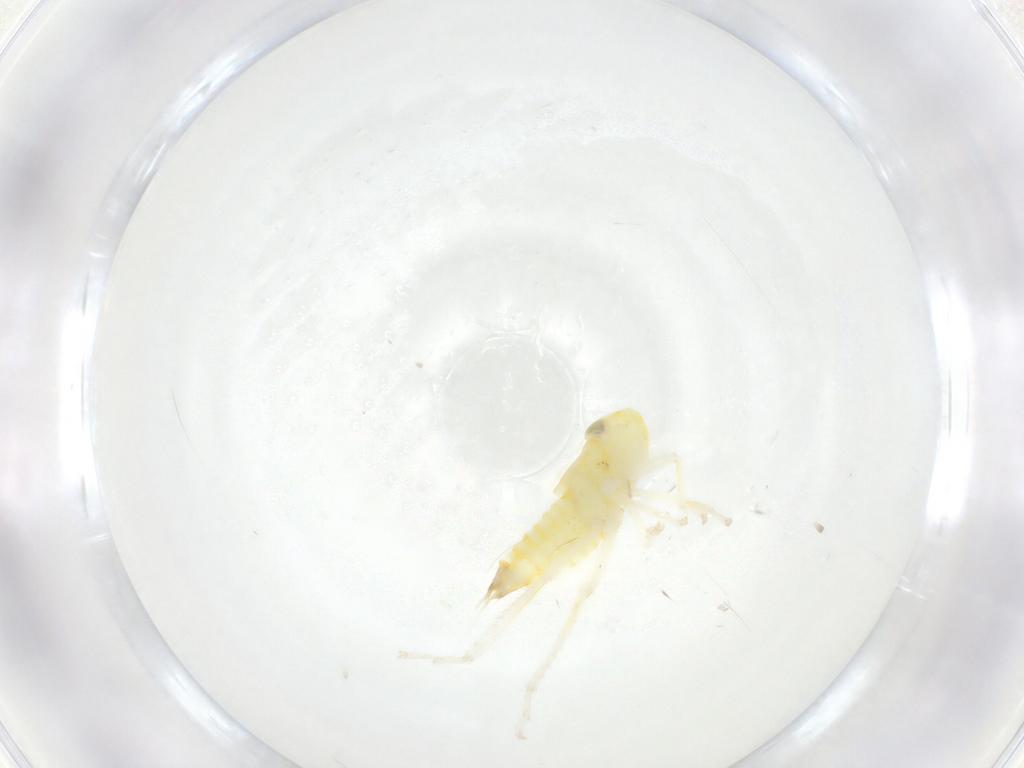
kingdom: Animalia
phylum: Arthropoda
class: Insecta
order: Hemiptera
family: Cicadellidae
